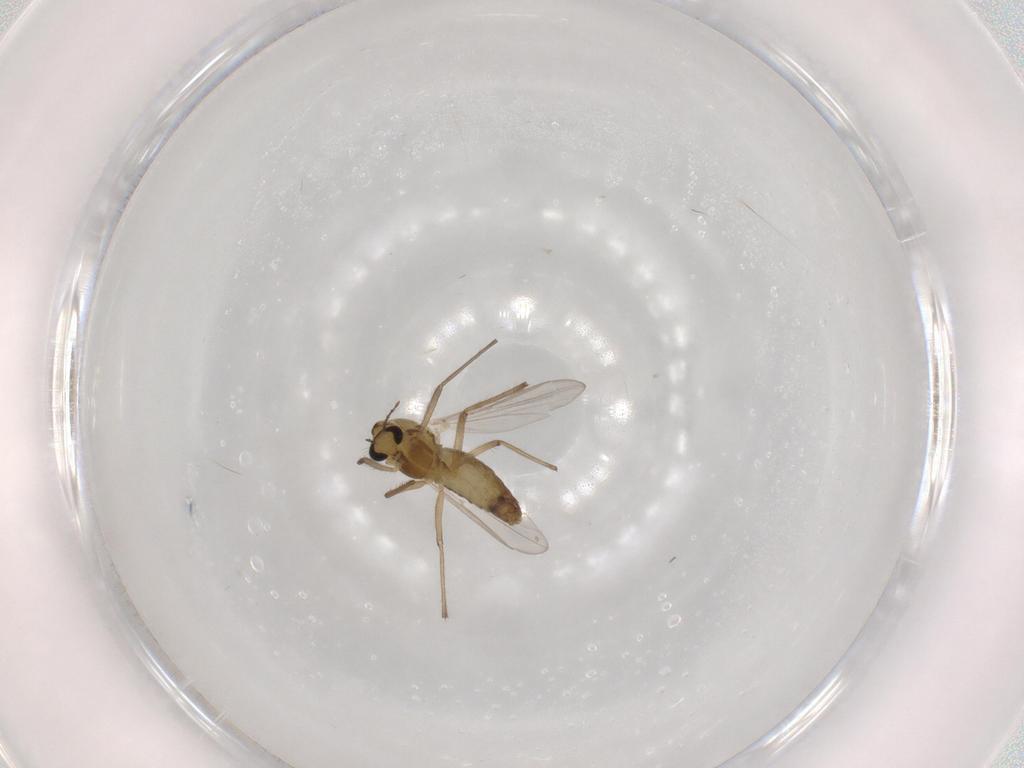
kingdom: Animalia
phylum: Arthropoda
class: Insecta
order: Diptera
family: Chironomidae
